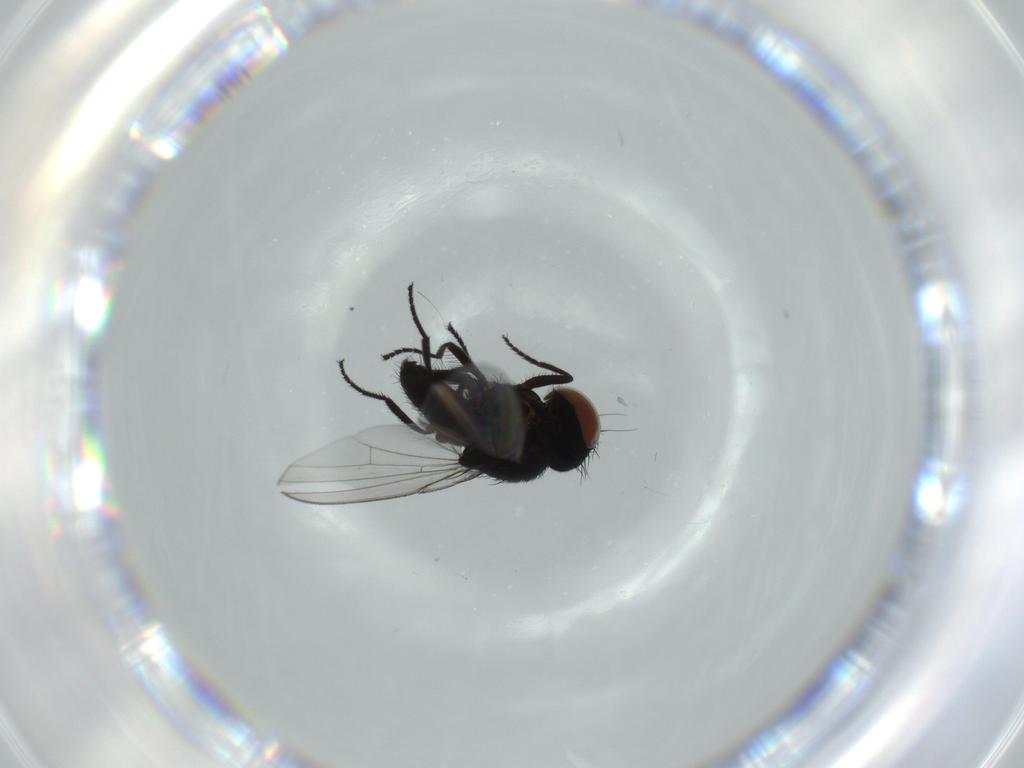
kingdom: Animalia
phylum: Arthropoda
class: Insecta
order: Diptera
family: Milichiidae
